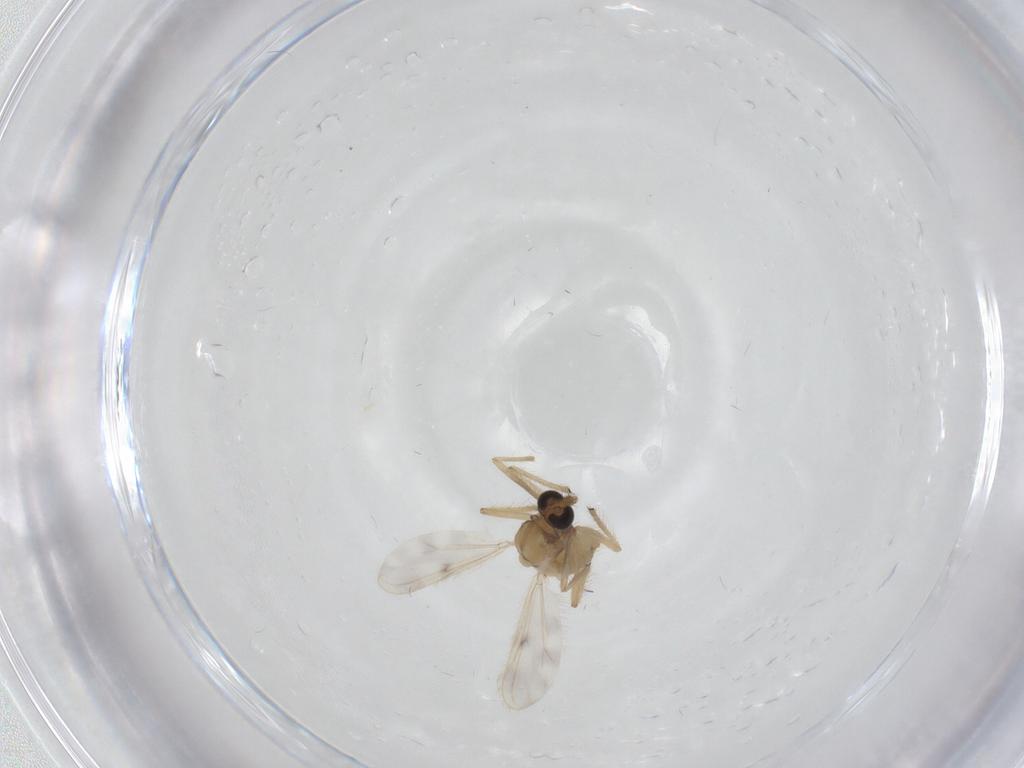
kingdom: Animalia
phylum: Arthropoda
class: Insecta
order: Diptera
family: Chironomidae
